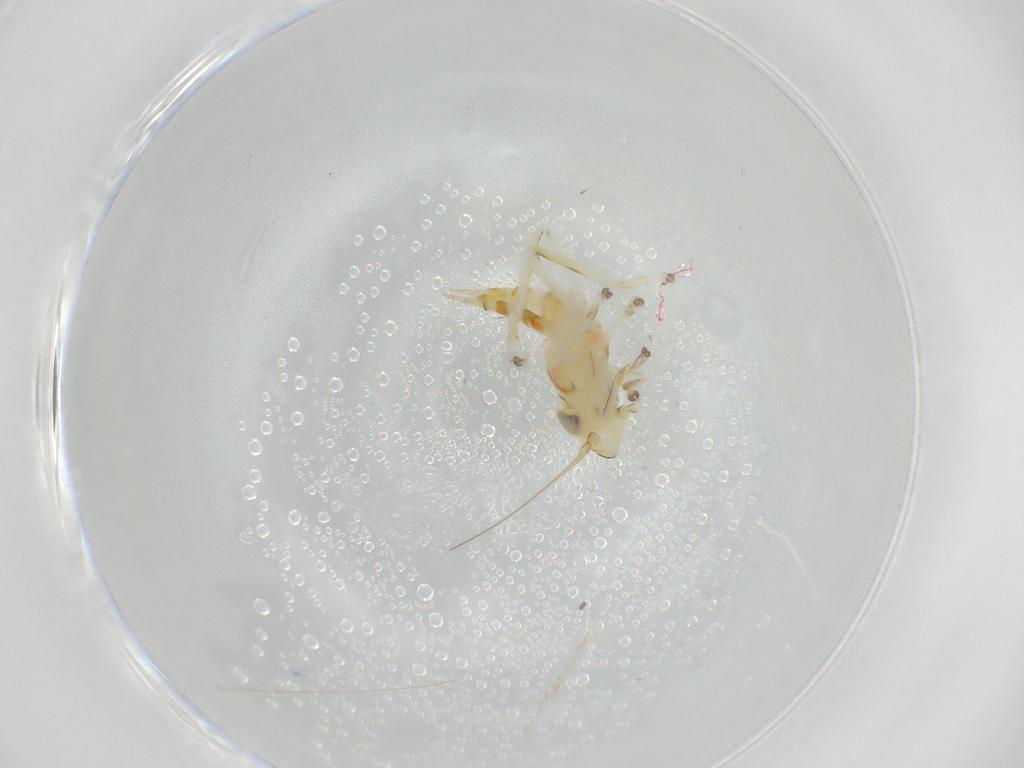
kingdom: Animalia
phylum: Arthropoda
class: Insecta
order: Hemiptera
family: Cicadellidae
